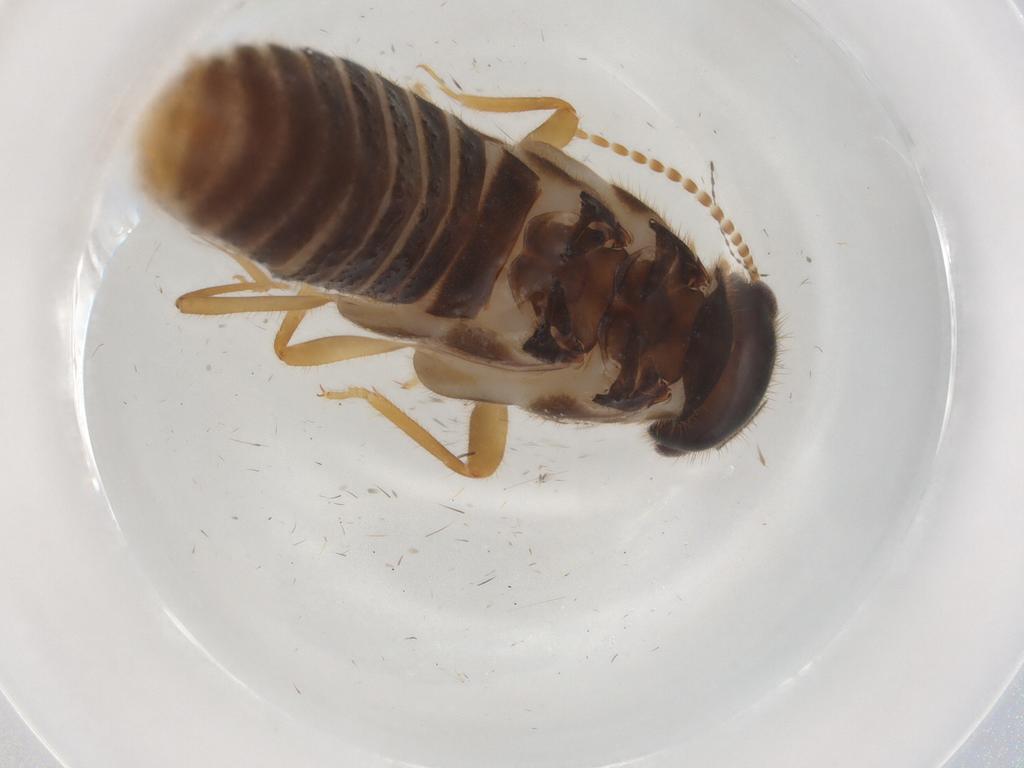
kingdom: Animalia
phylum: Arthropoda
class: Insecta
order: Blattodea
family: Termitidae
